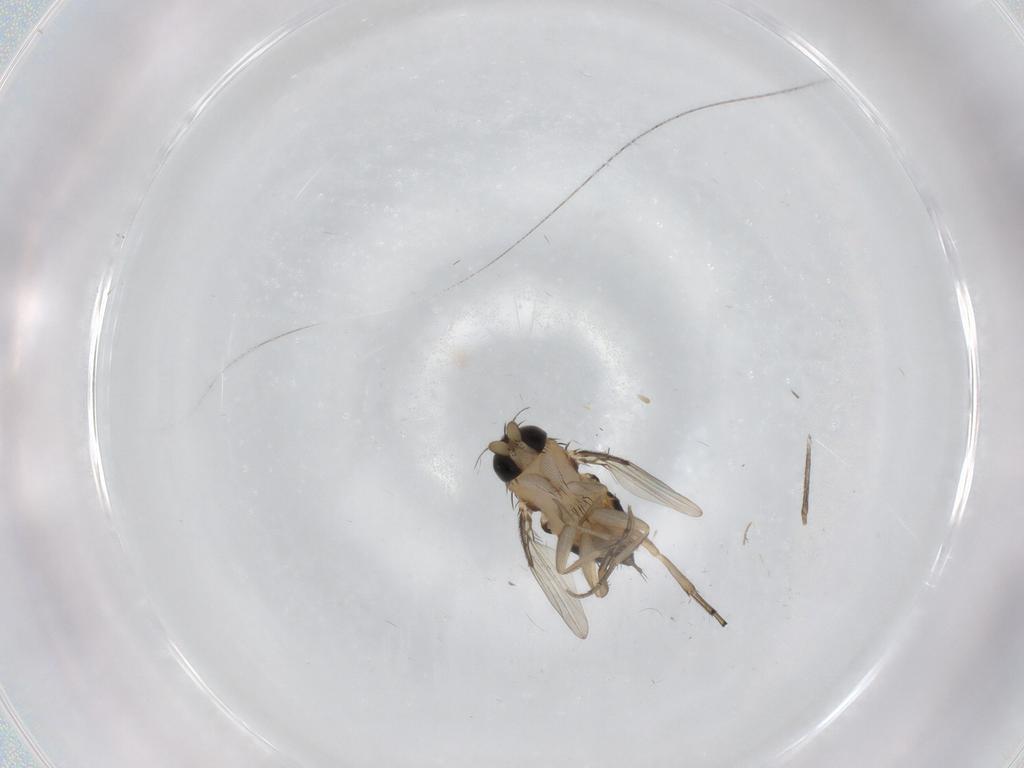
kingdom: Animalia
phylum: Arthropoda
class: Insecta
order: Diptera
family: Phoridae
